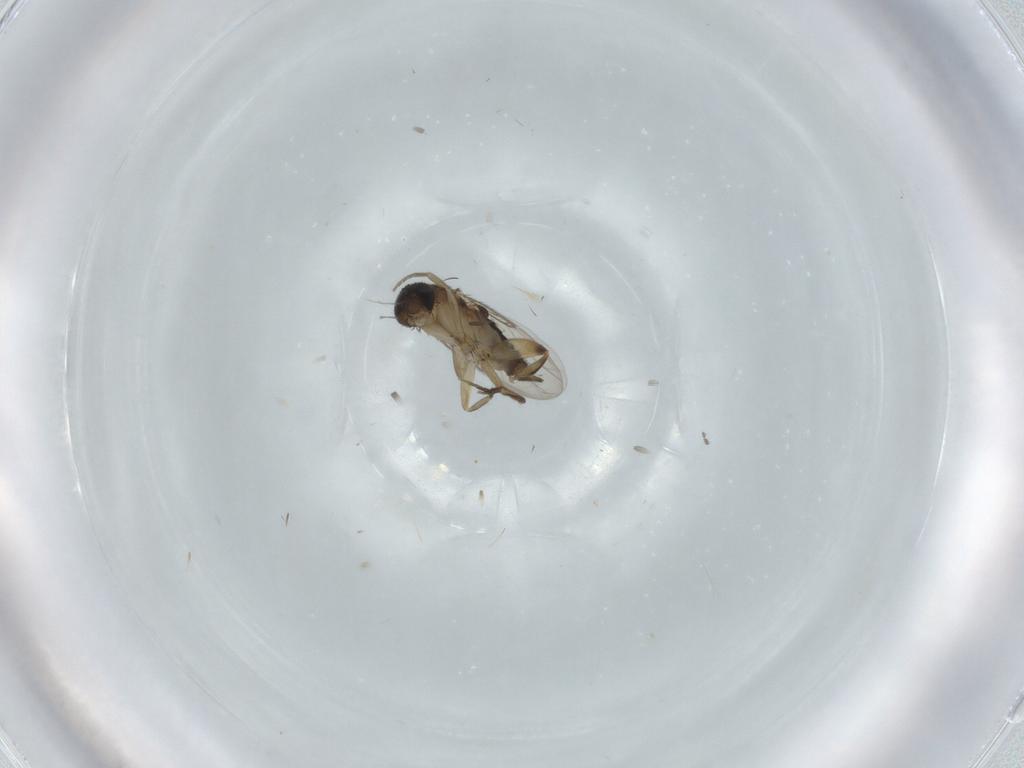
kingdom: Animalia
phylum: Arthropoda
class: Insecta
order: Diptera
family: Phoridae
